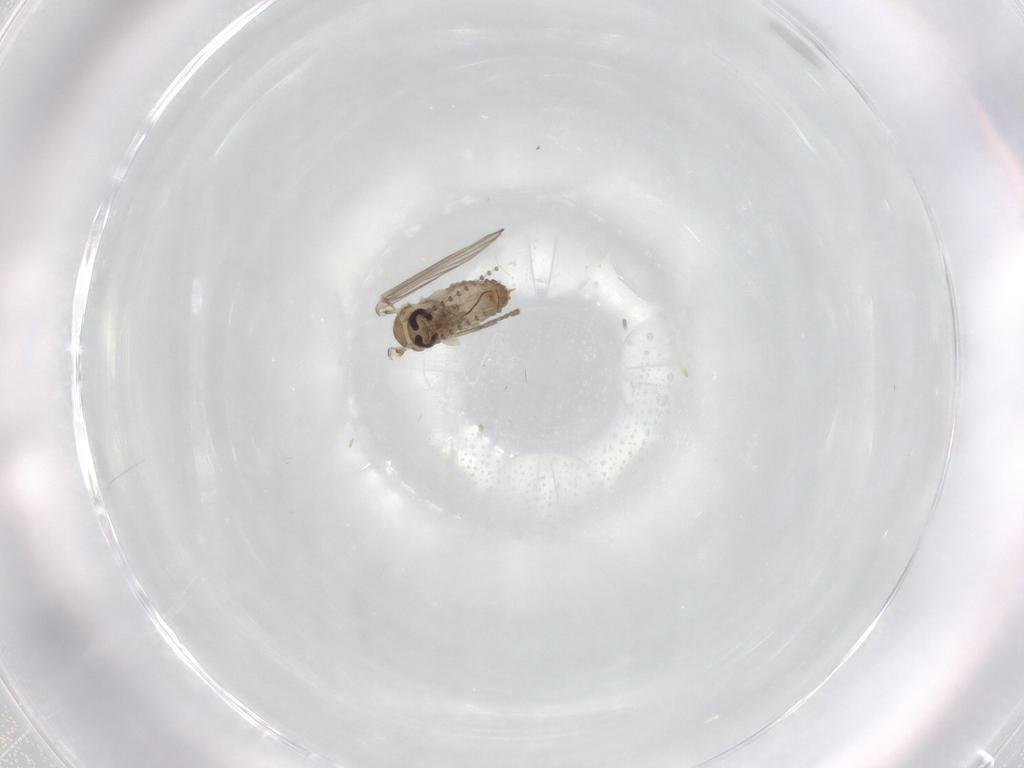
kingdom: Animalia
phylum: Arthropoda
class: Insecta
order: Diptera
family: Psychodidae
